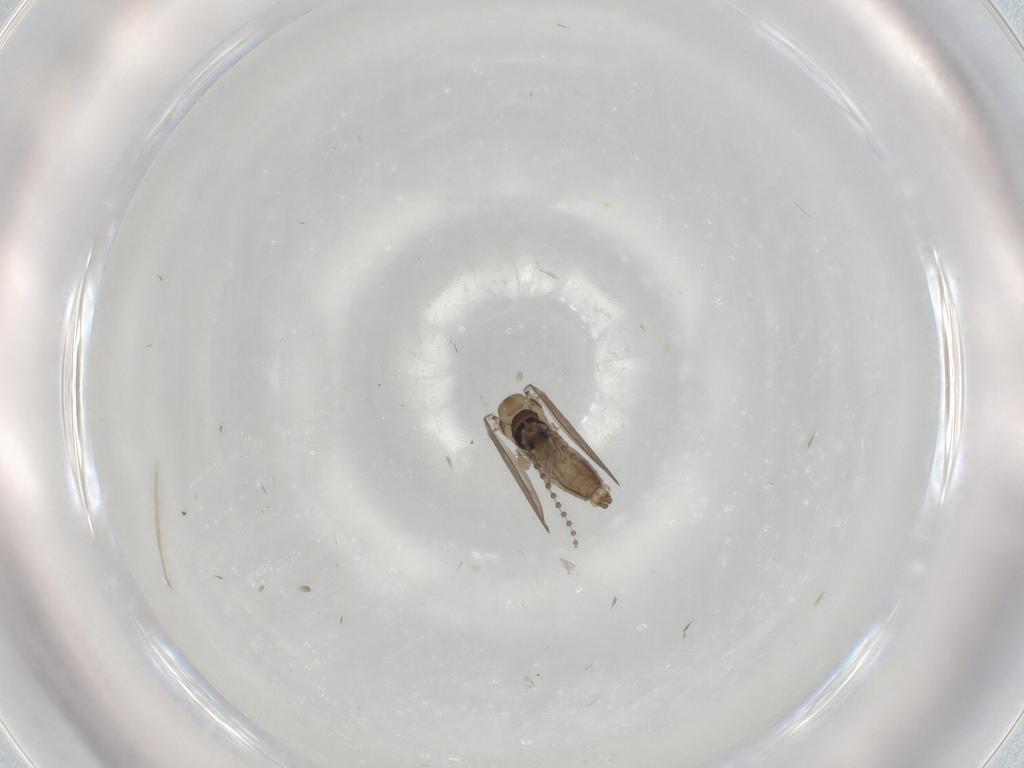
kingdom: Animalia
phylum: Arthropoda
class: Insecta
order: Diptera
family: Psychodidae
